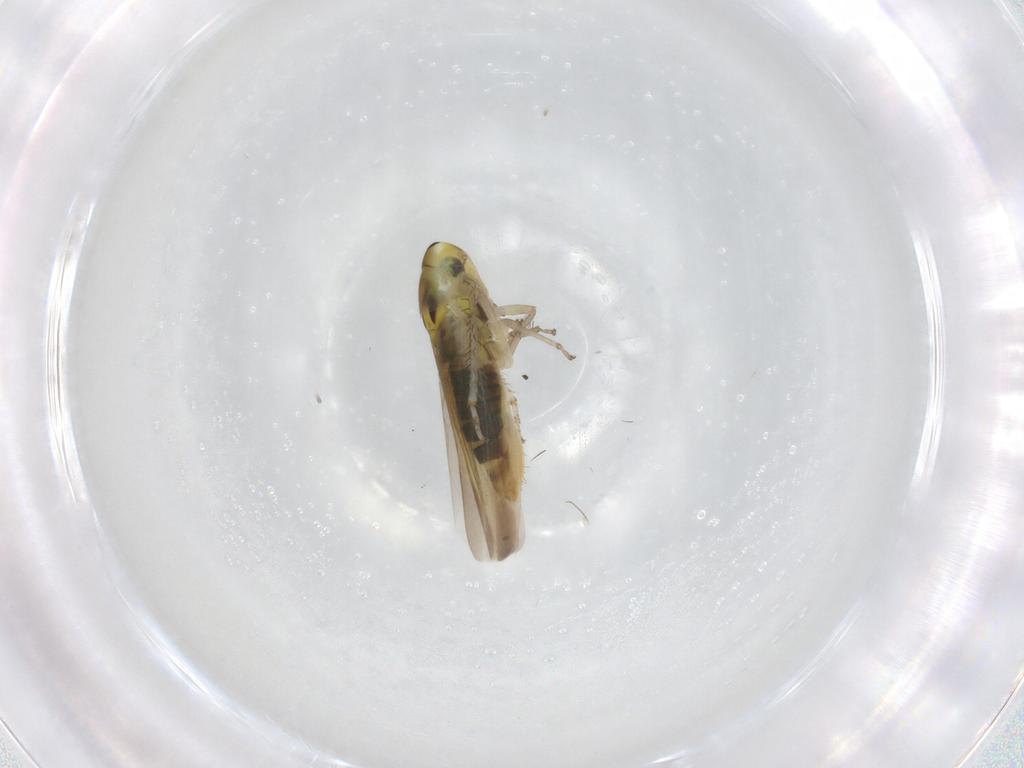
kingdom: Animalia
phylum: Arthropoda
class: Insecta
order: Hemiptera
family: Cicadellidae
